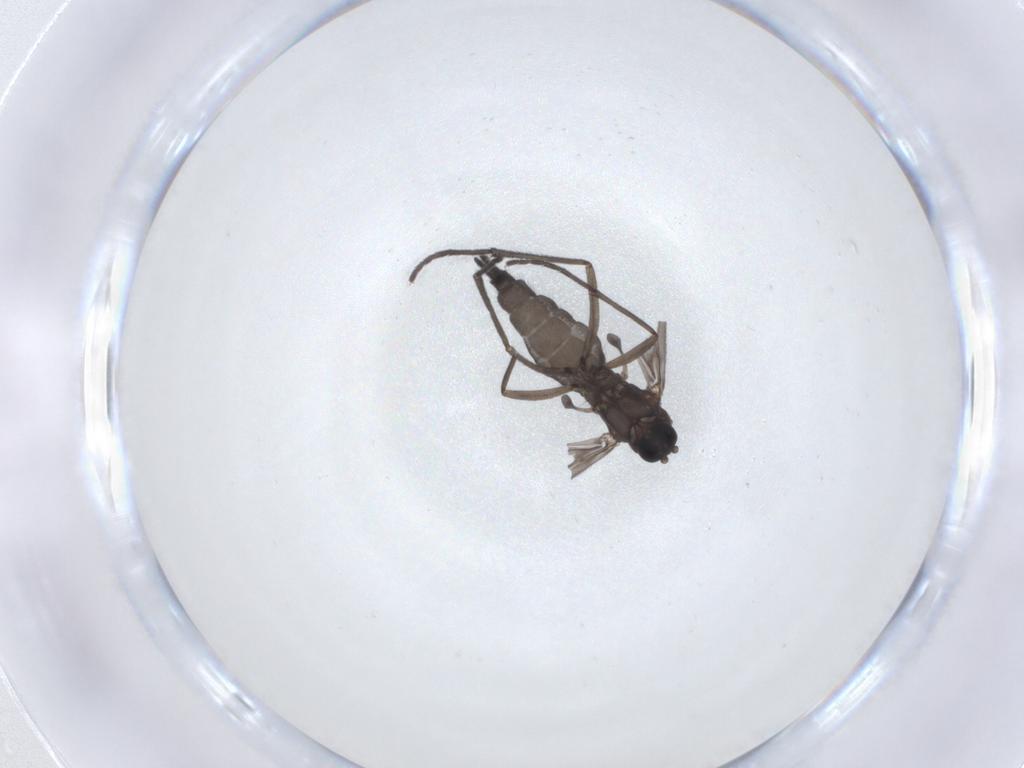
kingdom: Animalia
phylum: Arthropoda
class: Insecta
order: Diptera
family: Sciaridae
